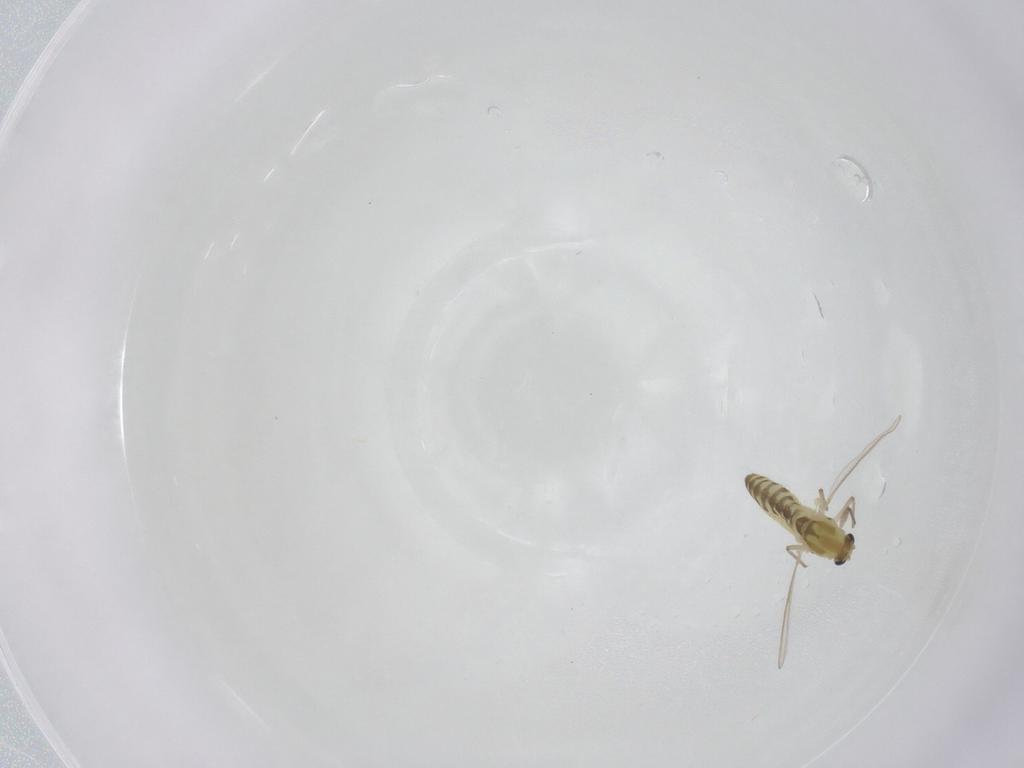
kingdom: Animalia
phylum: Arthropoda
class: Insecta
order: Diptera
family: Chironomidae
